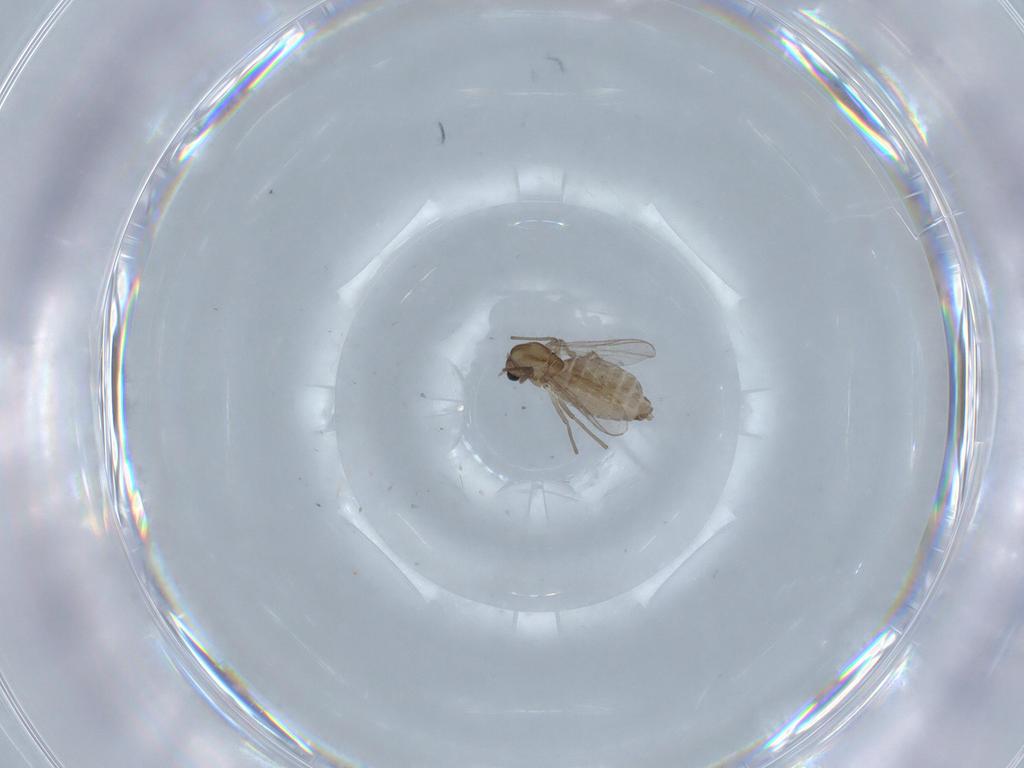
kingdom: Animalia
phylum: Arthropoda
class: Insecta
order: Diptera
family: Chironomidae
